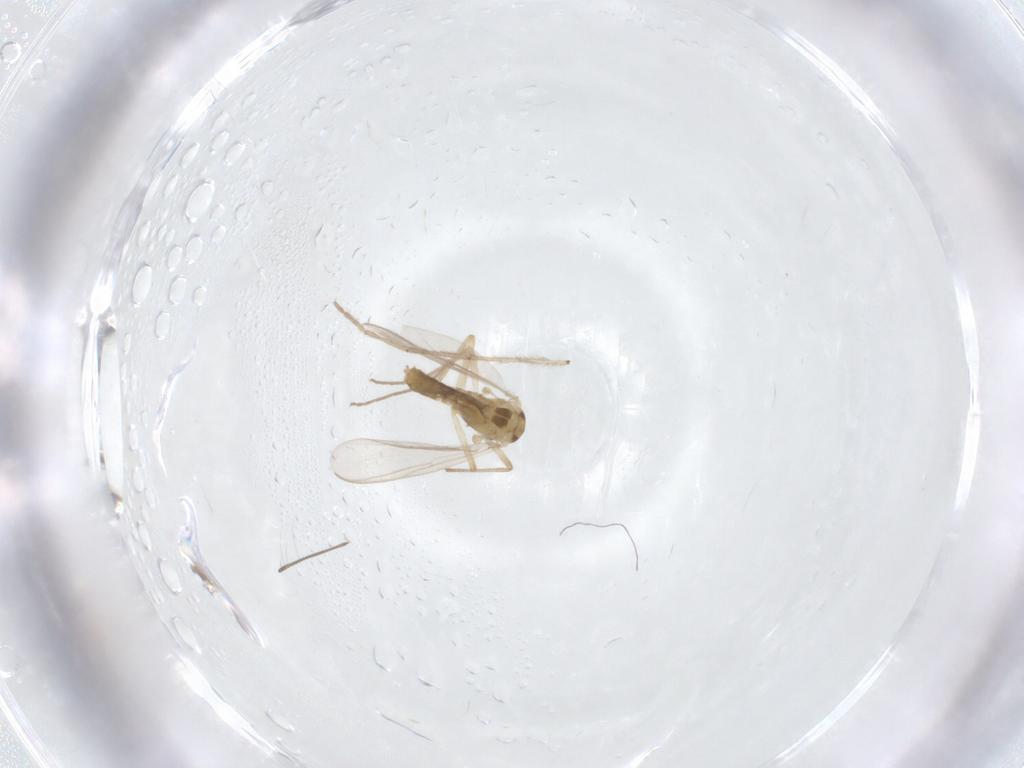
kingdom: Animalia
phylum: Arthropoda
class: Insecta
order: Diptera
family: Chironomidae
